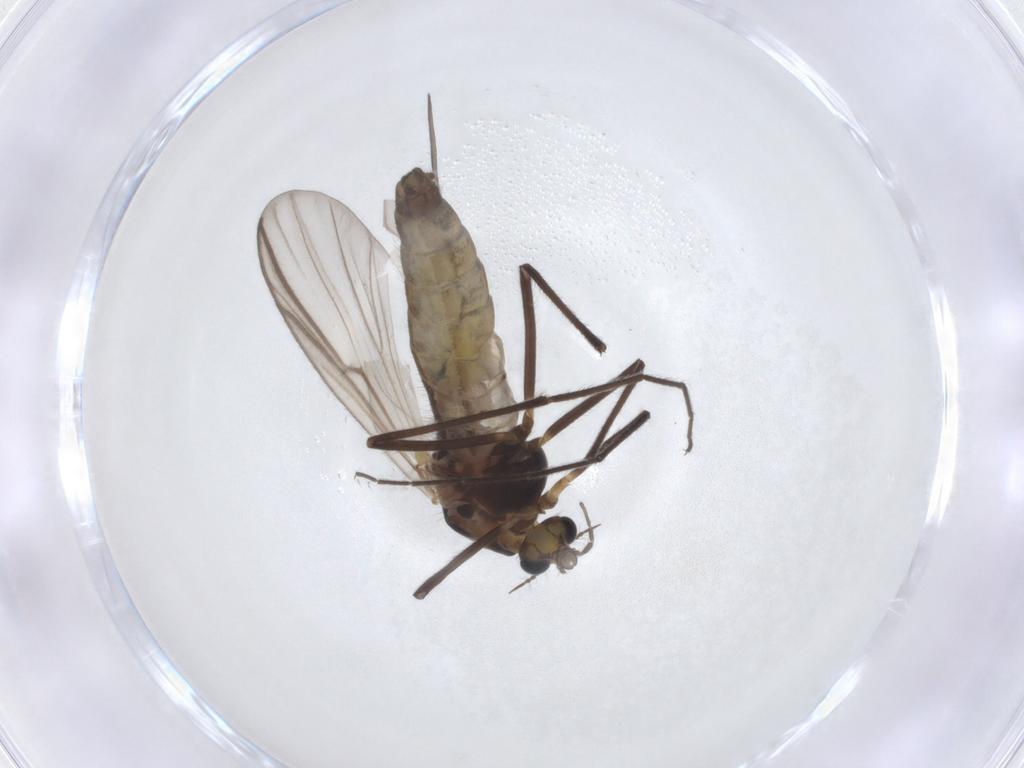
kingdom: Animalia
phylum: Arthropoda
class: Insecta
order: Diptera
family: Chironomidae
